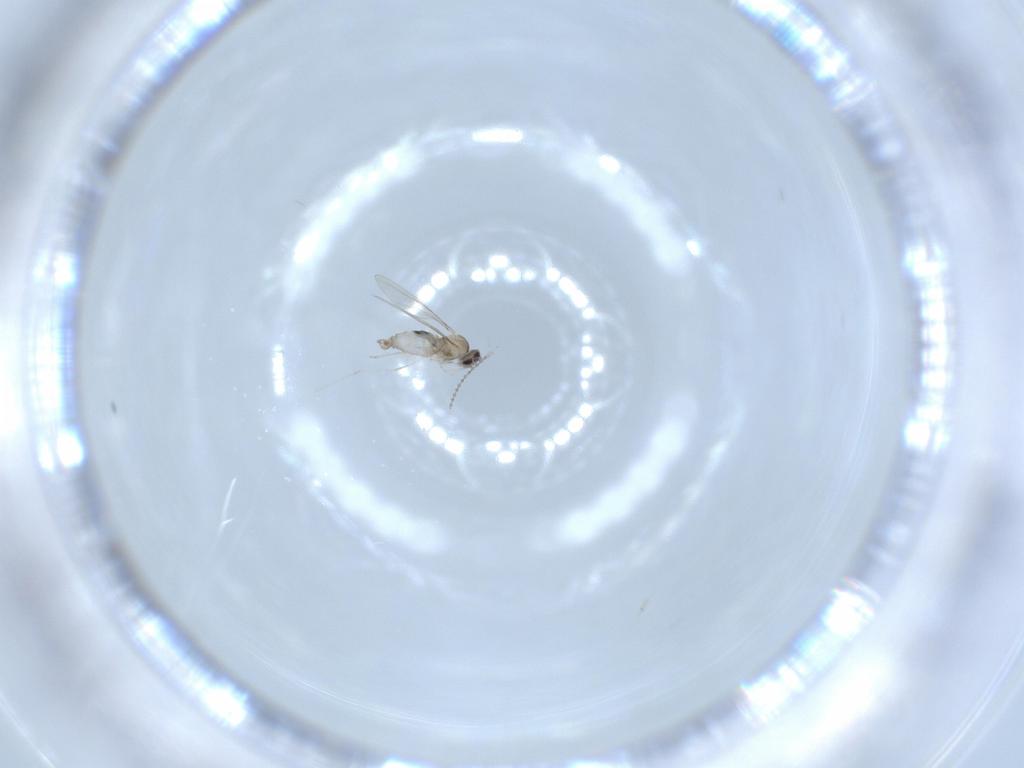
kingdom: Animalia
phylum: Arthropoda
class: Insecta
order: Diptera
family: Cecidomyiidae
